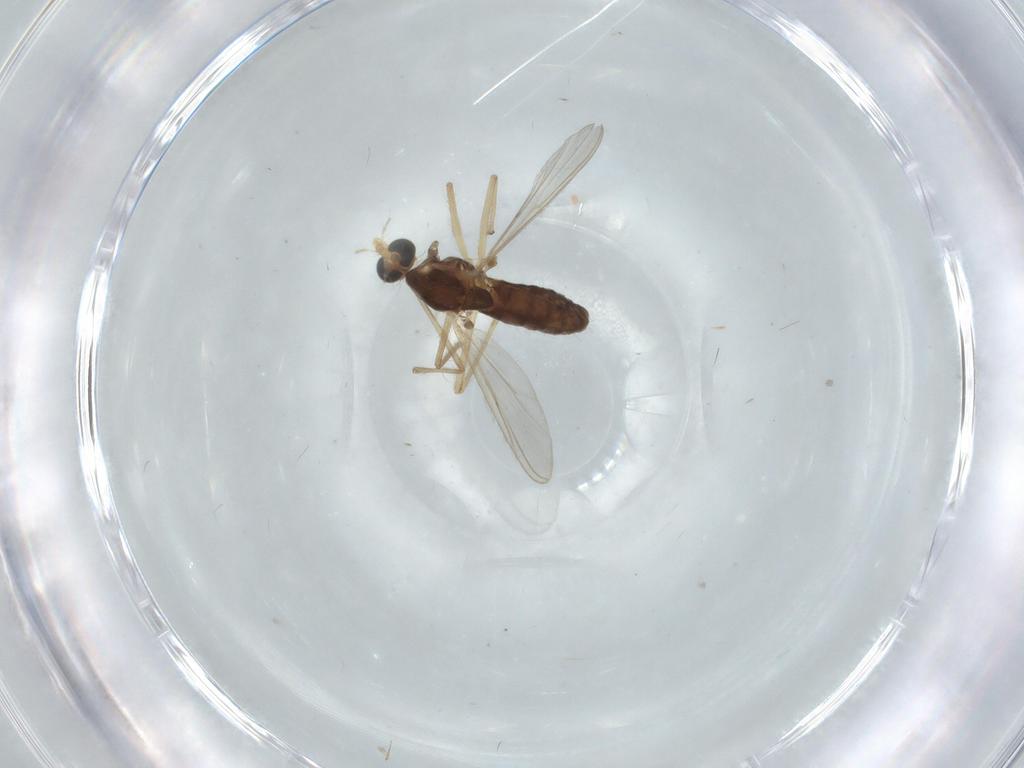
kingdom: Animalia
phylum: Arthropoda
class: Insecta
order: Diptera
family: Chironomidae
